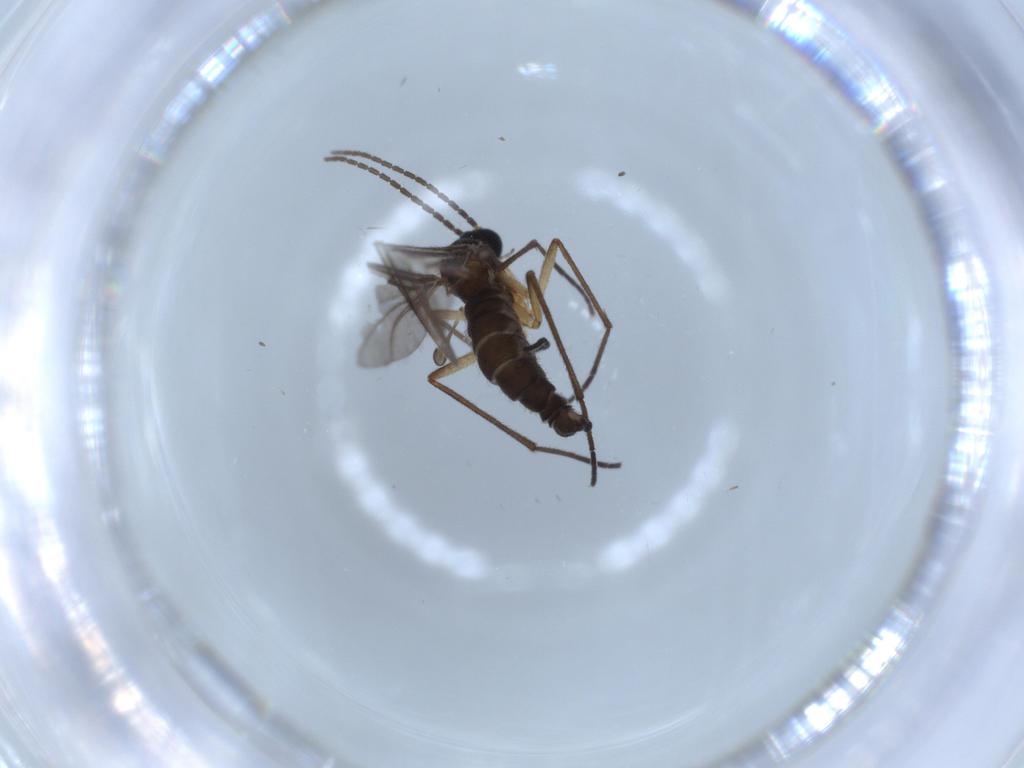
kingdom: Animalia
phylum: Arthropoda
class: Insecta
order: Diptera
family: Sciaridae
